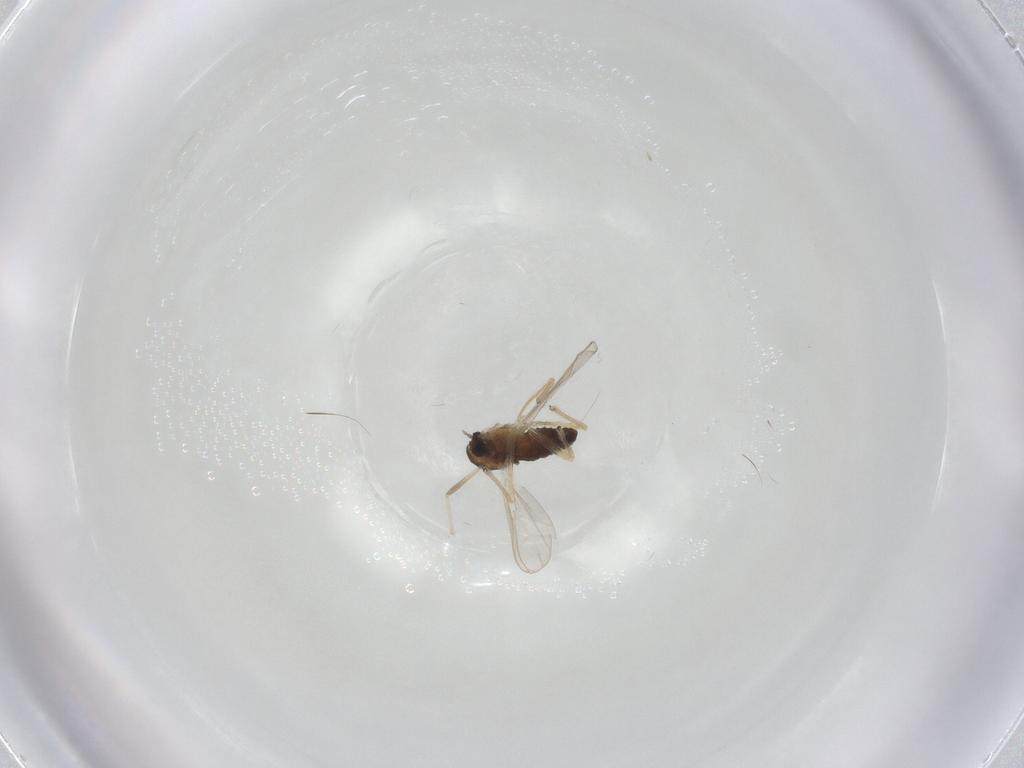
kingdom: Animalia
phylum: Arthropoda
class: Insecta
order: Diptera
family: Chironomidae
